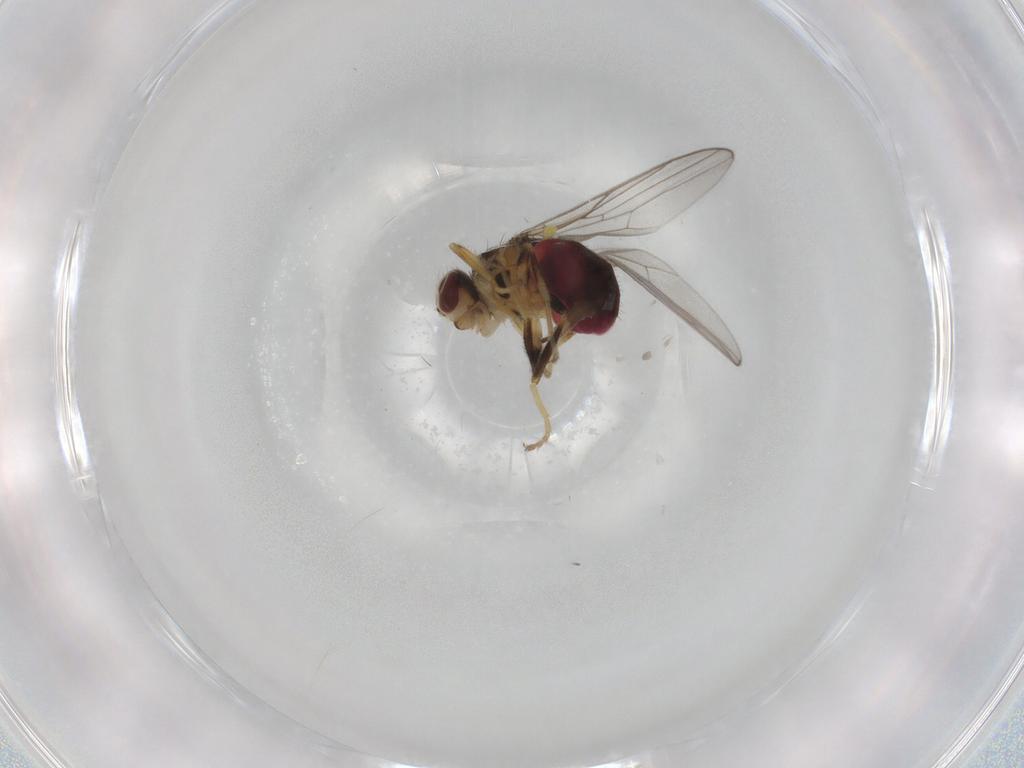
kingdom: Animalia
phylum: Arthropoda
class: Insecta
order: Diptera
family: Chloropidae
